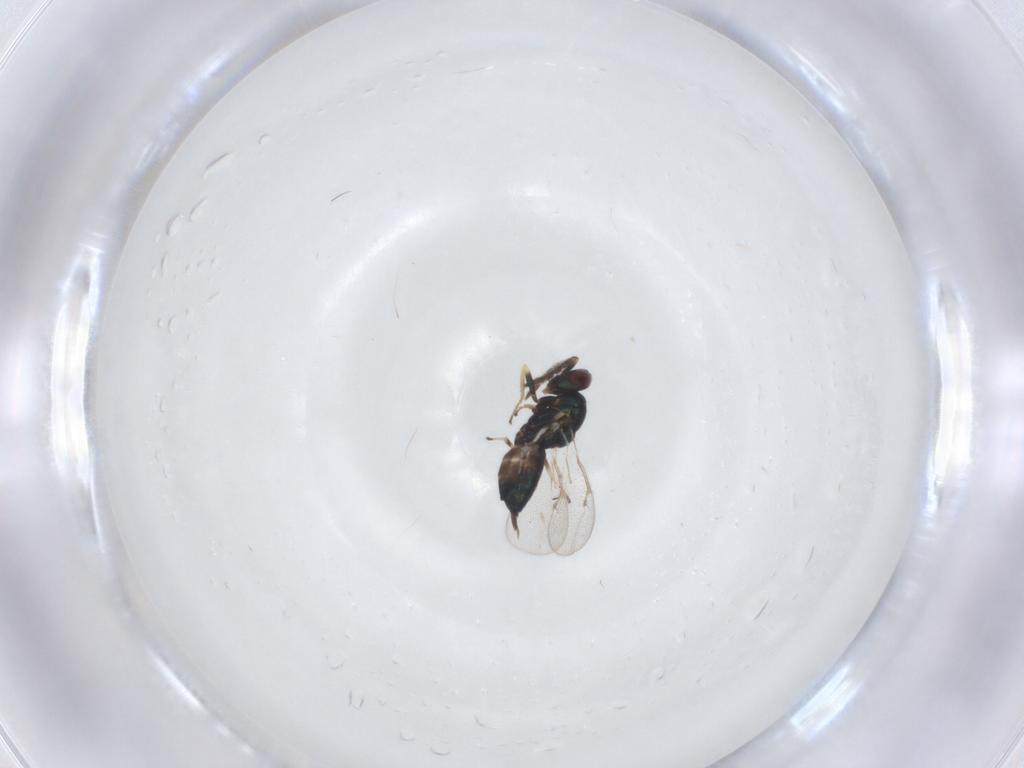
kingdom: Animalia
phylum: Arthropoda
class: Insecta
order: Hymenoptera
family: Eulophidae
